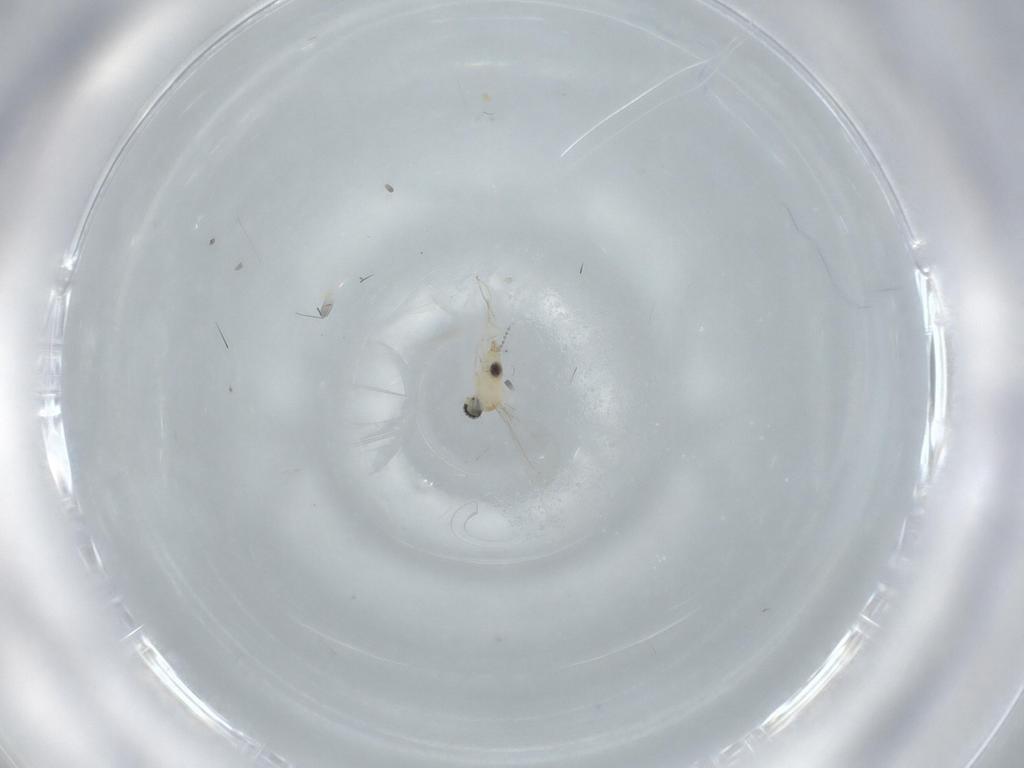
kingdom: Animalia
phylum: Arthropoda
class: Insecta
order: Diptera
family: Cecidomyiidae
